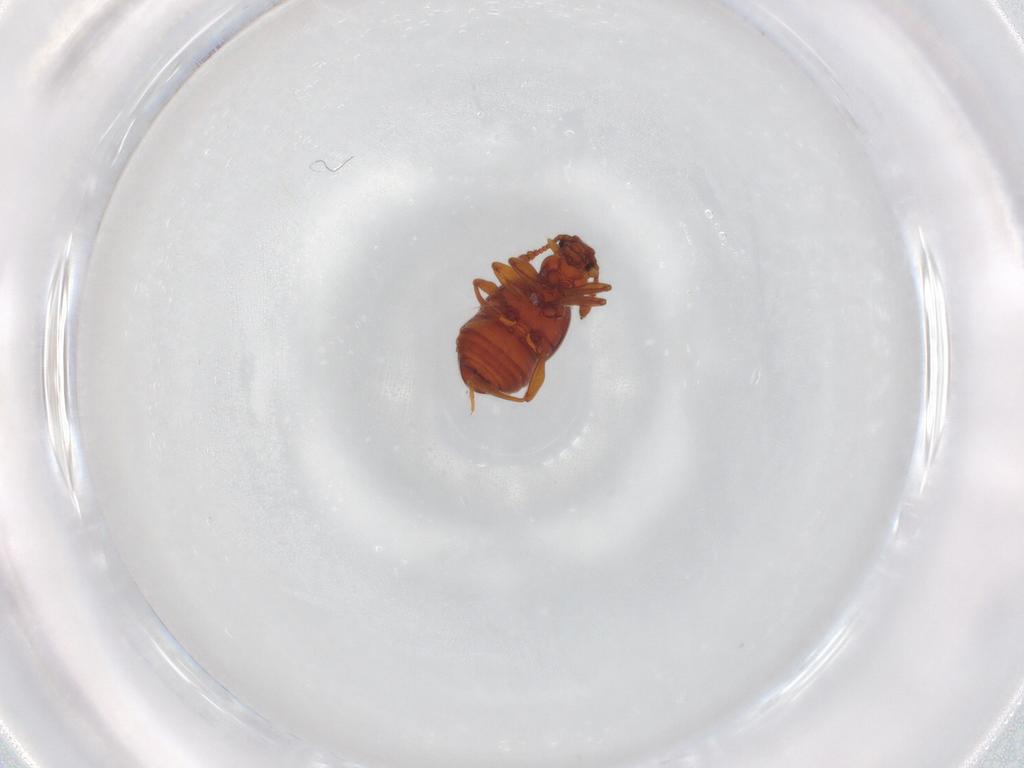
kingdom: Animalia
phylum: Arthropoda
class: Insecta
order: Coleoptera
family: Staphylinidae
